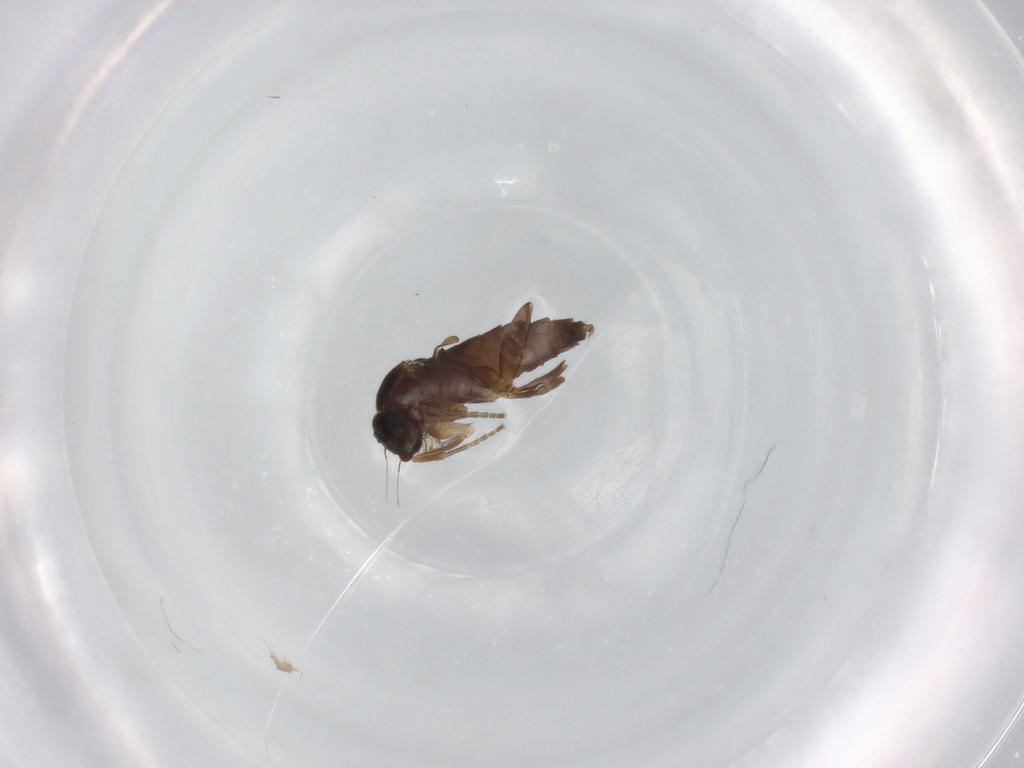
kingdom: Animalia
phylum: Arthropoda
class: Insecta
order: Diptera
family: Phoridae
